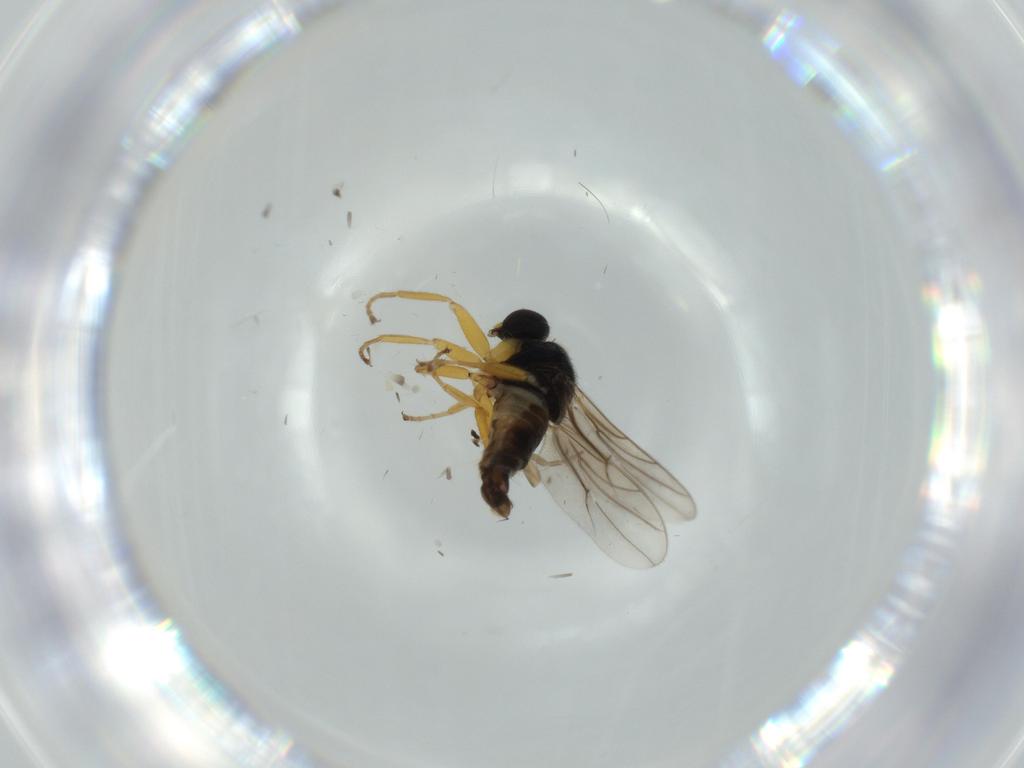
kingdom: Animalia
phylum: Arthropoda
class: Insecta
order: Diptera
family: Hybotidae
